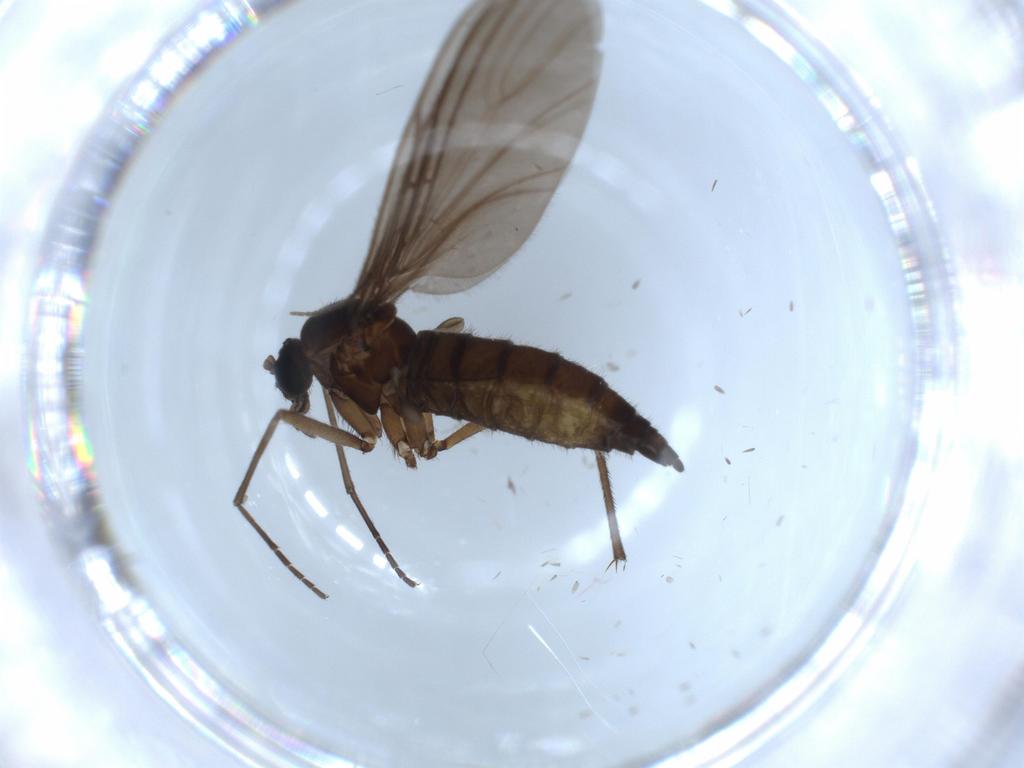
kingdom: Animalia
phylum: Arthropoda
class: Insecta
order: Diptera
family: Sciaridae
